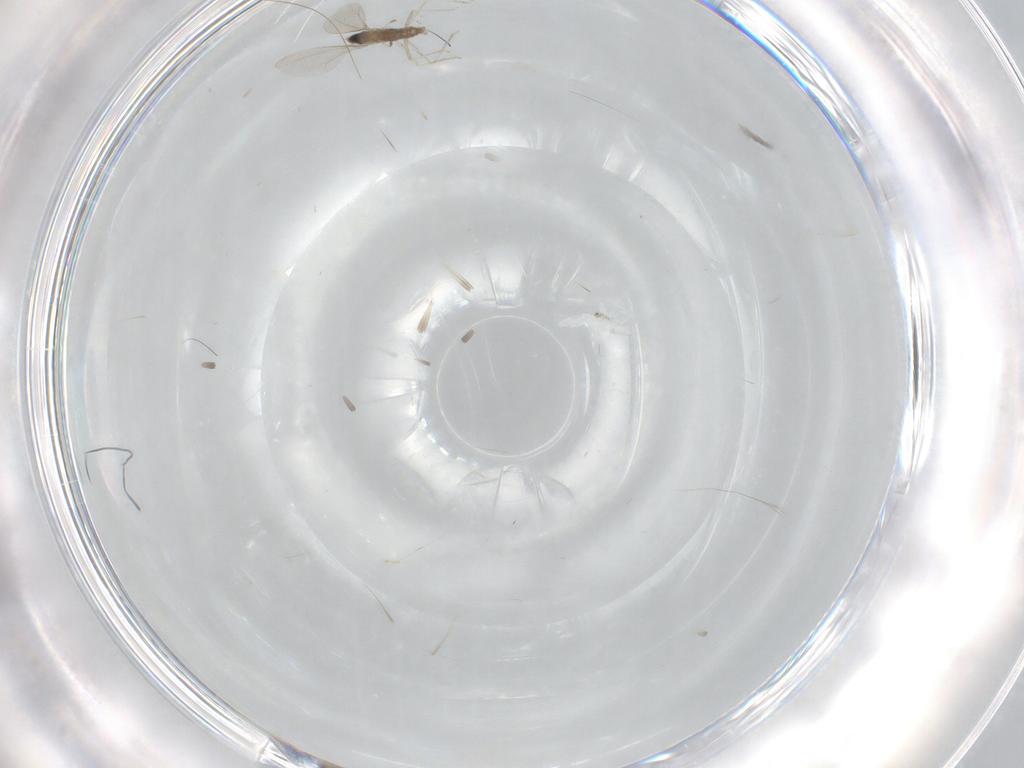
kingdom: Animalia
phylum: Arthropoda
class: Insecta
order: Diptera
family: Cecidomyiidae
